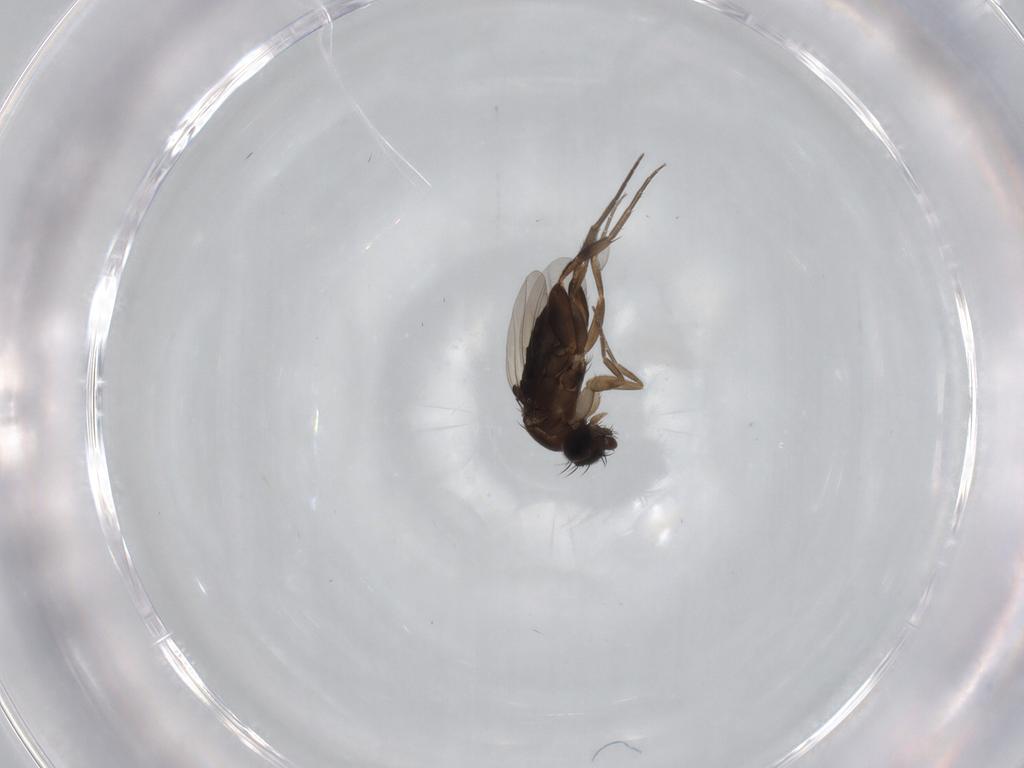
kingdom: Animalia
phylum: Arthropoda
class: Insecta
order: Diptera
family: Phoridae
